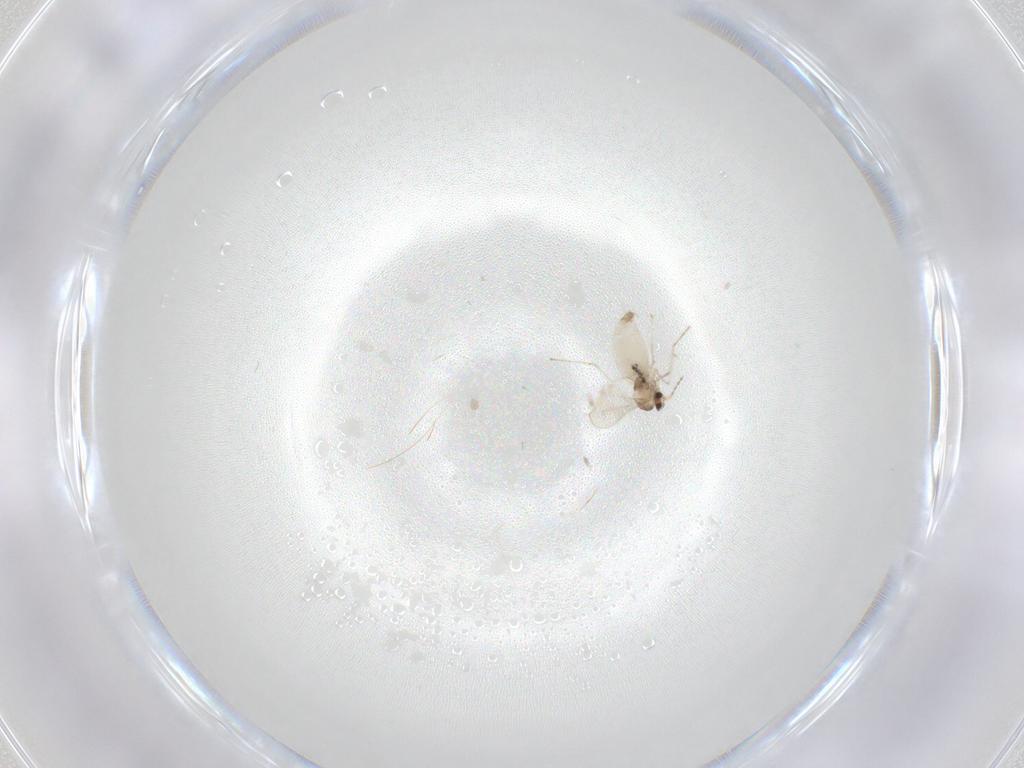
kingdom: Animalia
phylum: Arthropoda
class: Insecta
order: Diptera
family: Cecidomyiidae
